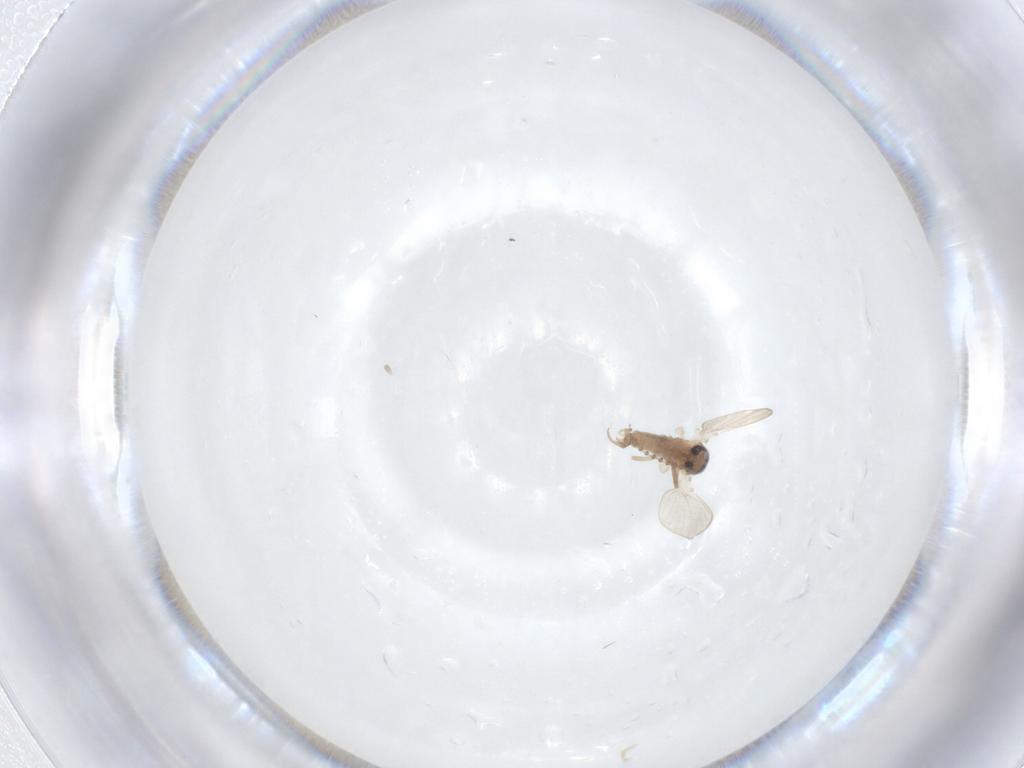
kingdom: Animalia
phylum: Arthropoda
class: Insecta
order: Diptera
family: Psychodidae
